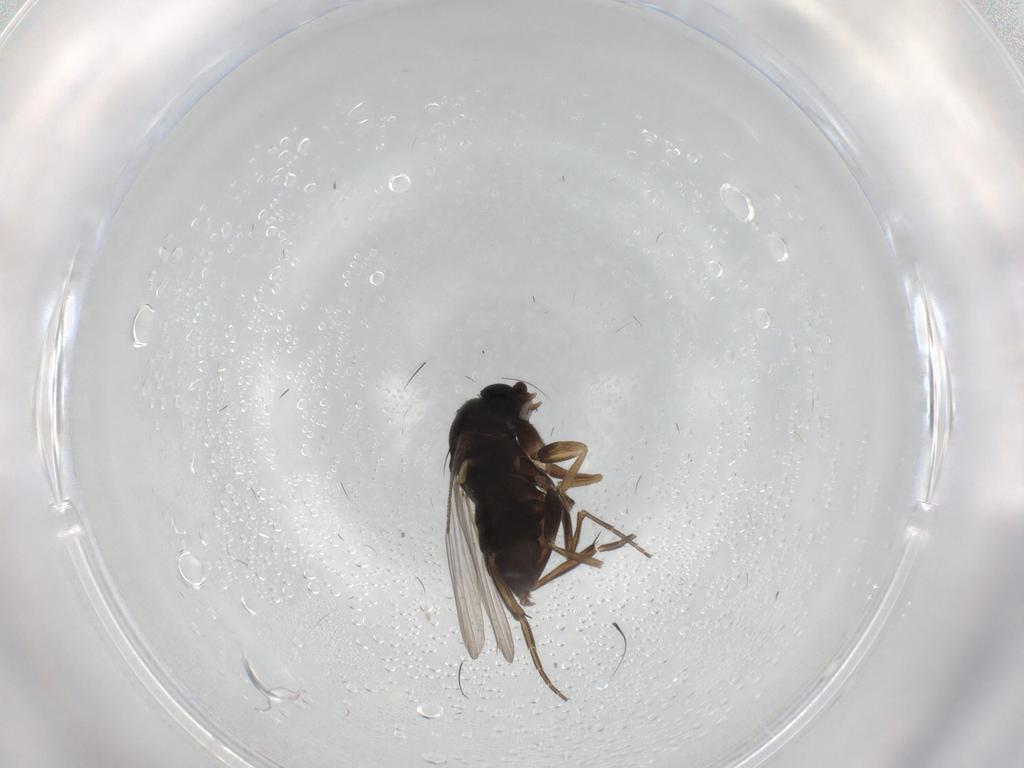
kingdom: Animalia
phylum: Arthropoda
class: Insecta
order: Diptera
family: Phoridae
